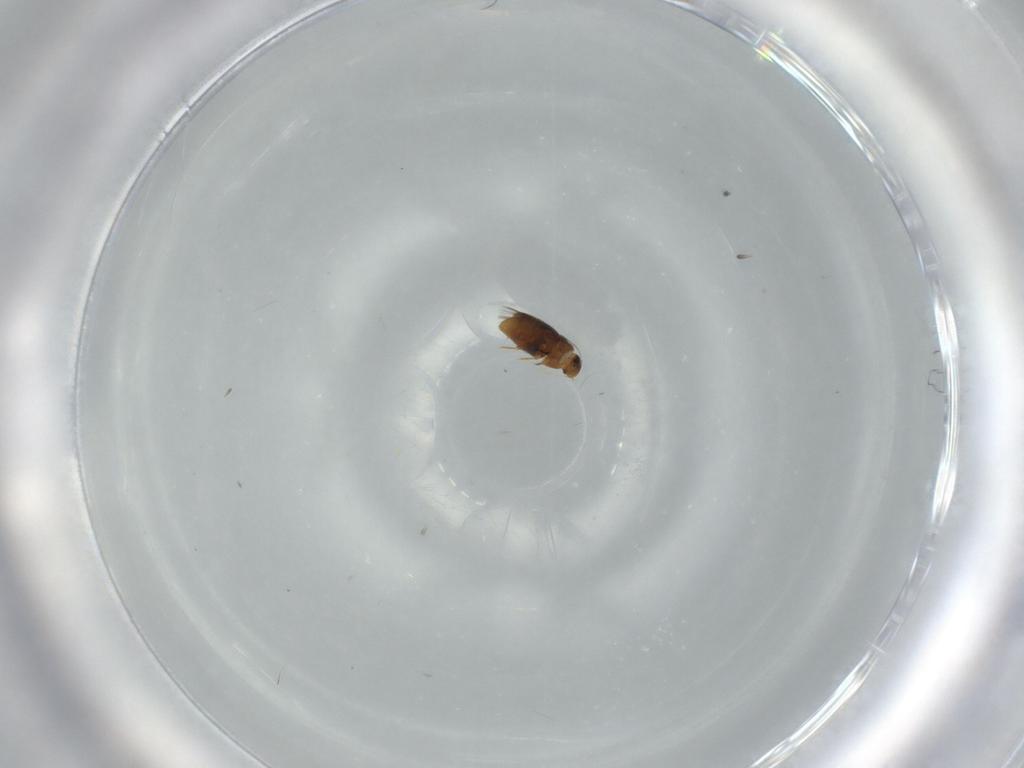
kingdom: Animalia
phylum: Arthropoda
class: Insecta
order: Coleoptera
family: Ptiliidae
